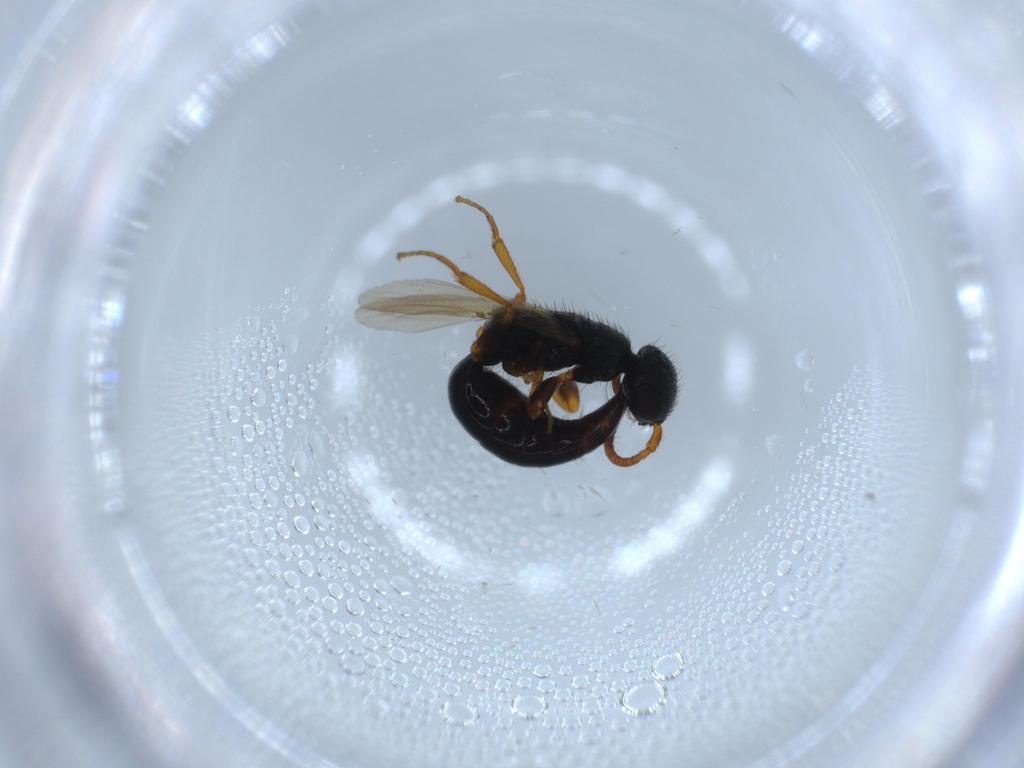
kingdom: Animalia
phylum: Arthropoda
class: Insecta
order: Hymenoptera
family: Bethylidae
